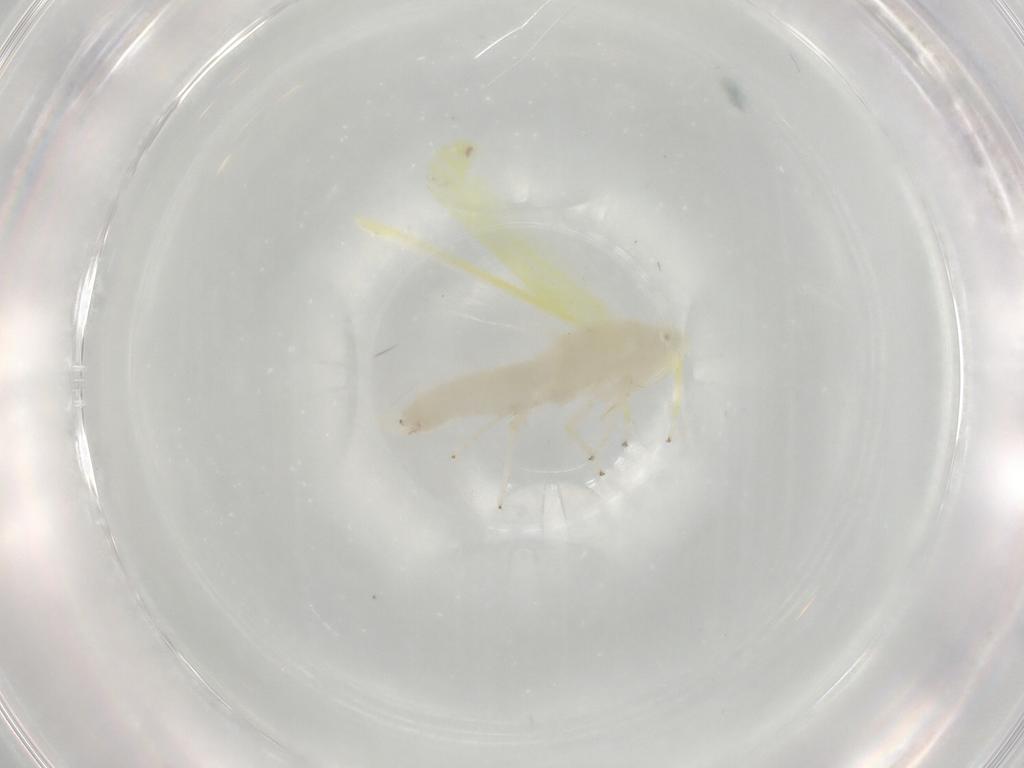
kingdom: Animalia
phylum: Arthropoda
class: Insecta
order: Hemiptera
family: Cicadellidae
